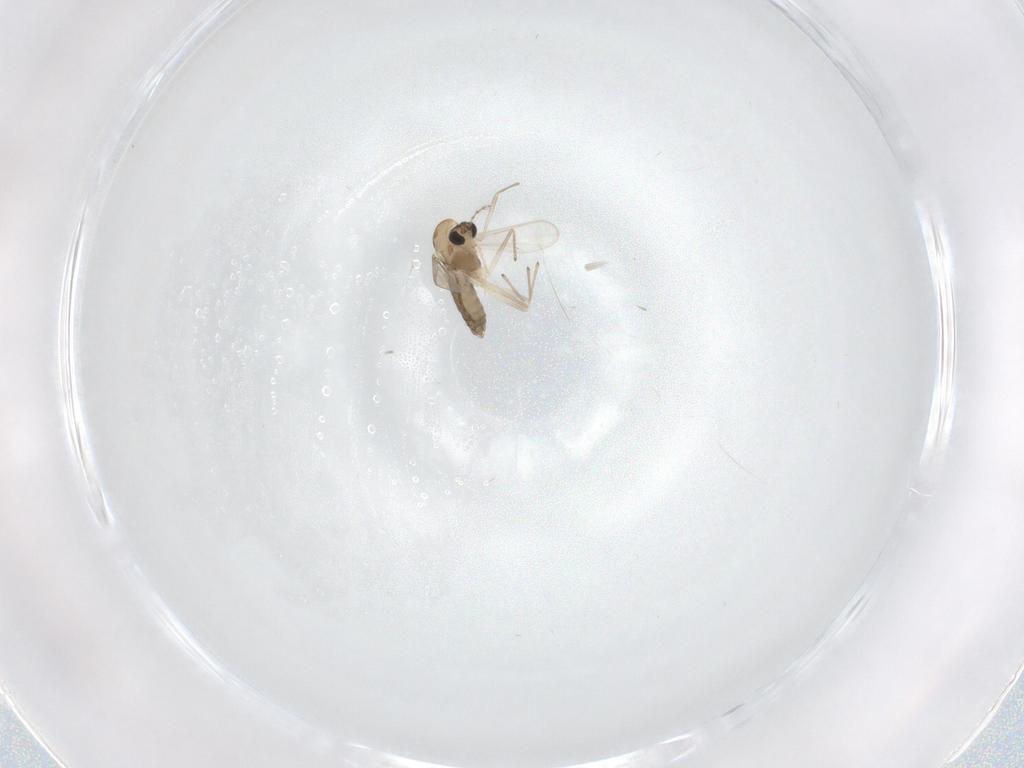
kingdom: Animalia
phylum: Arthropoda
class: Insecta
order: Diptera
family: Chironomidae
